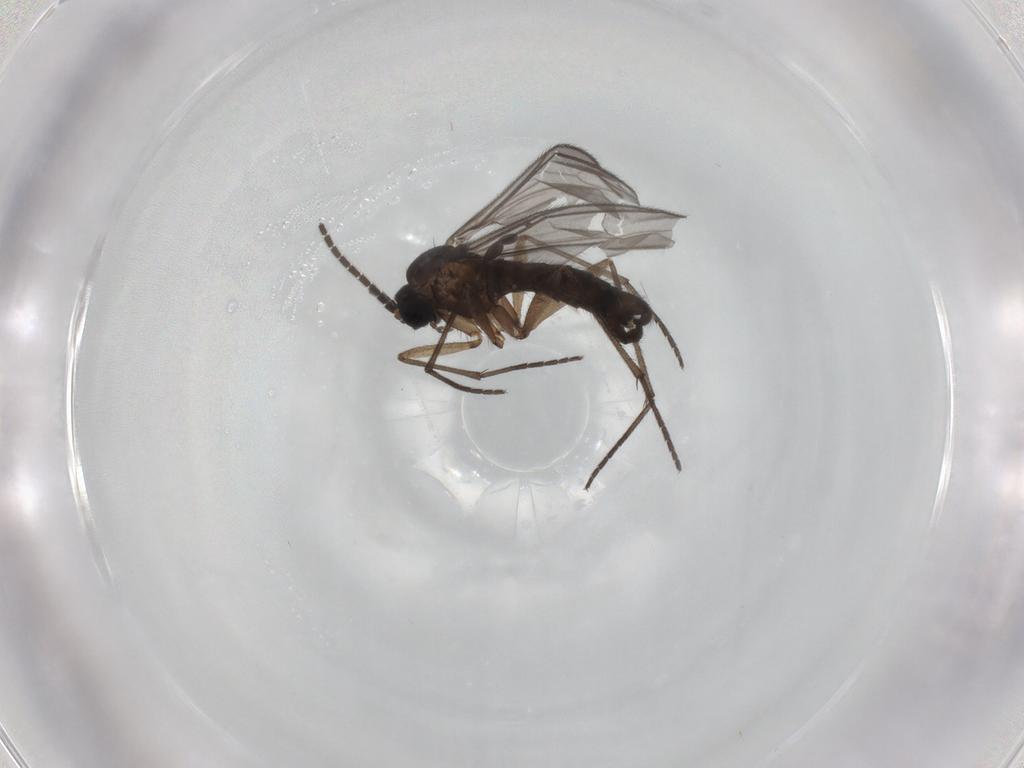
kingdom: Animalia
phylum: Arthropoda
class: Insecta
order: Diptera
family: Sciaridae
